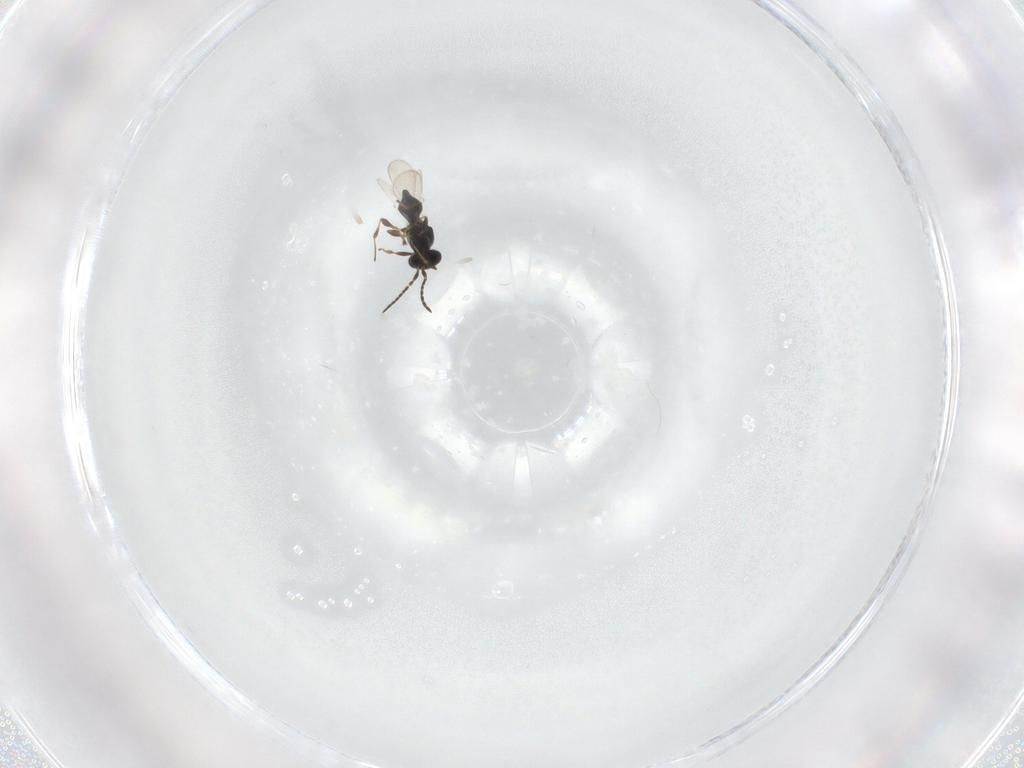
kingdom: Animalia
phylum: Arthropoda
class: Insecta
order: Hymenoptera
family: Platygastridae
